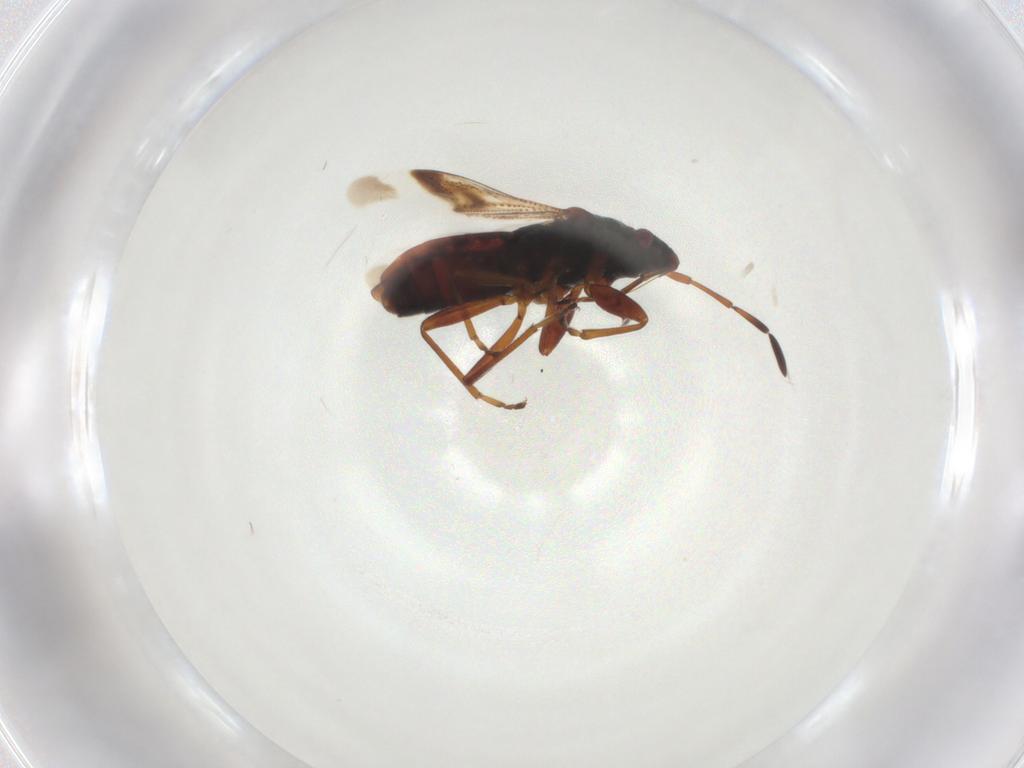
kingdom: Animalia
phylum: Arthropoda
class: Insecta
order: Hemiptera
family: Rhyparochromidae
